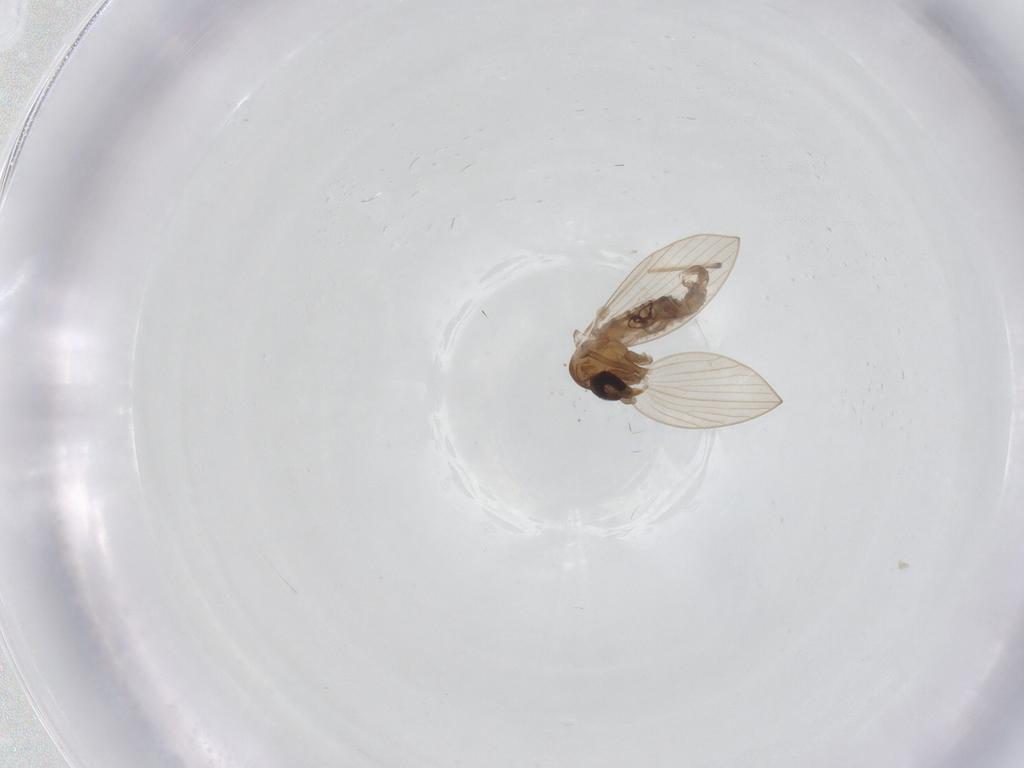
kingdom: Animalia
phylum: Arthropoda
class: Insecta
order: Diptera
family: Psychodidae
